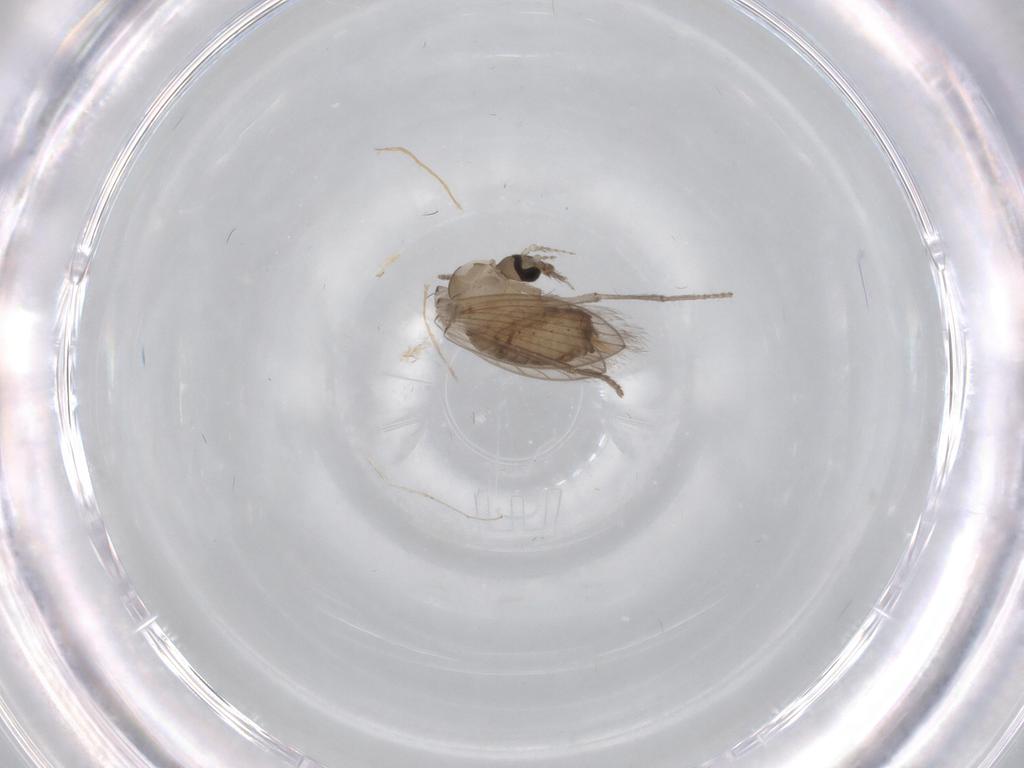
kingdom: Animalia
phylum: Arthropoda
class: Insecta
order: Diptera
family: Psychodidae
